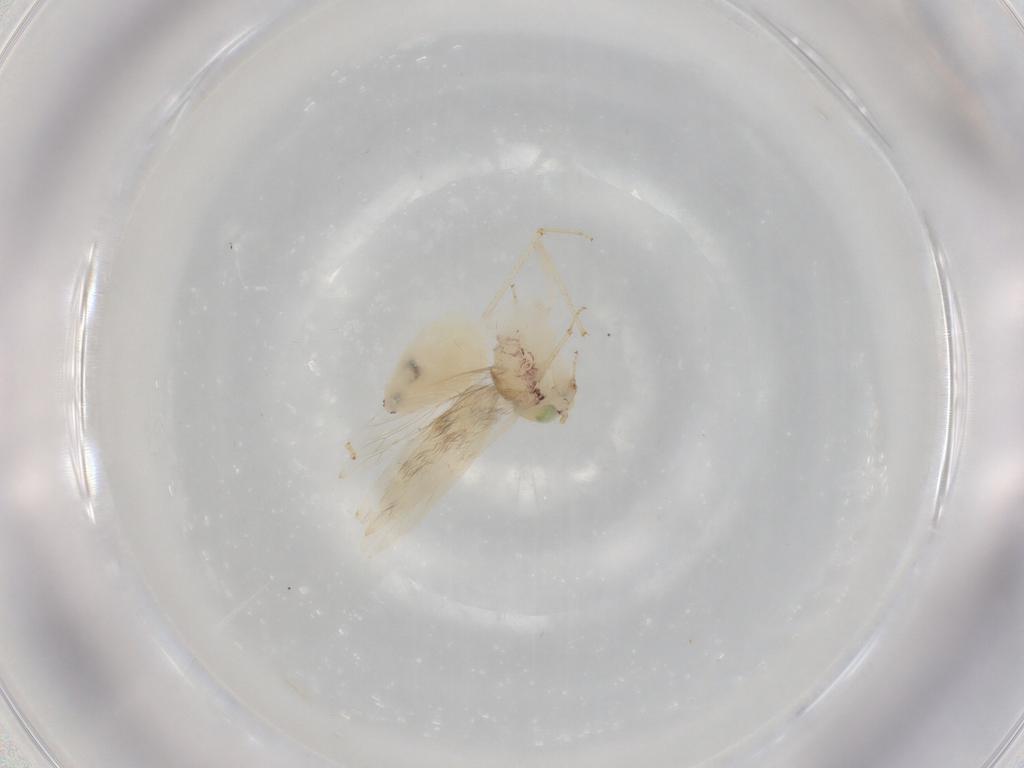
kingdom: Animalia
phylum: Arthropoda
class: Insecta
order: Psocodea
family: Lepidopsocidae
